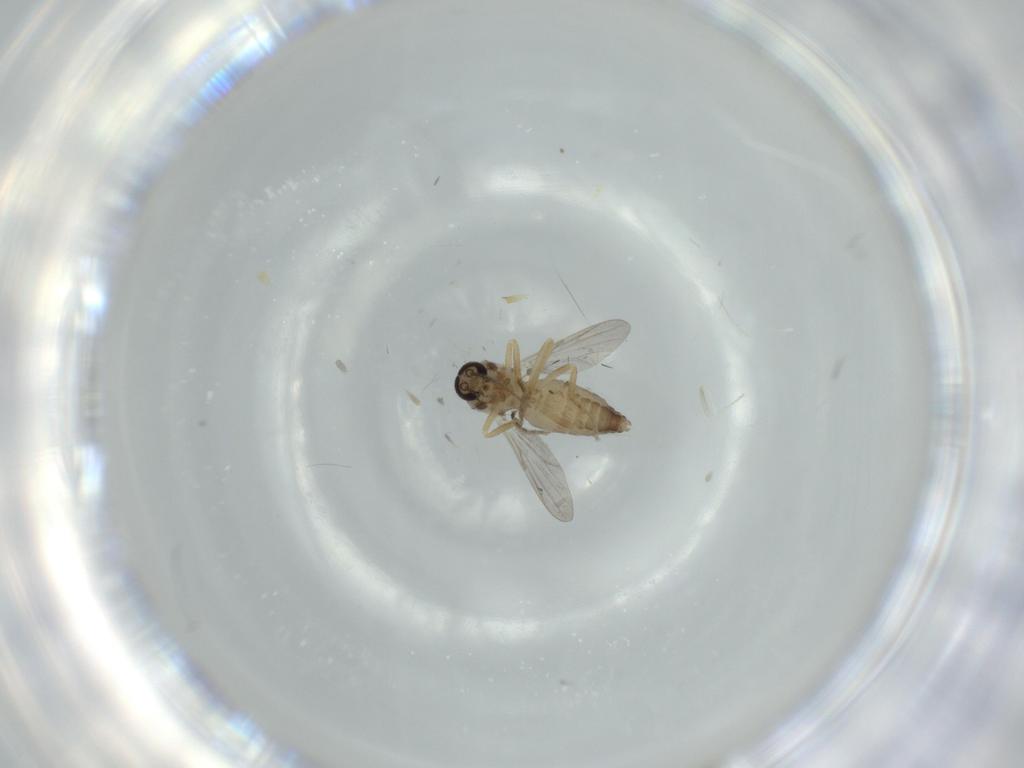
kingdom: Animalia
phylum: Arthropoda
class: Insecta
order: Diptera
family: Ceratopogonidae
